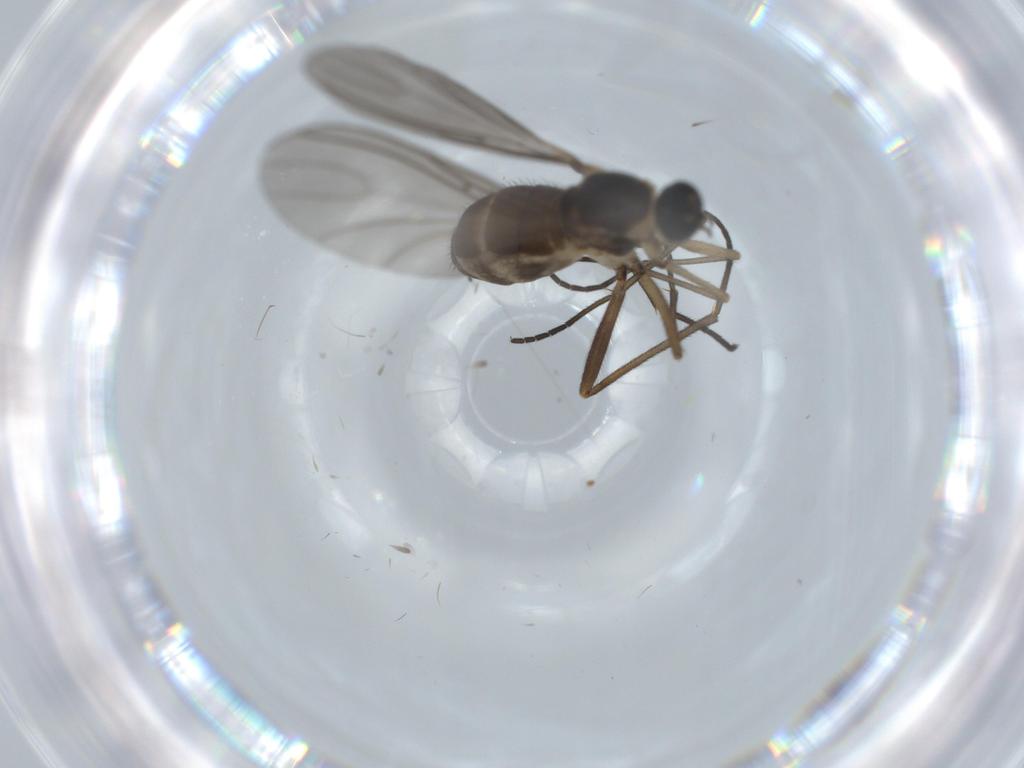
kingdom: Animalia
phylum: Arthropoda
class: Insecta
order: Diptera
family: Sciaridae
